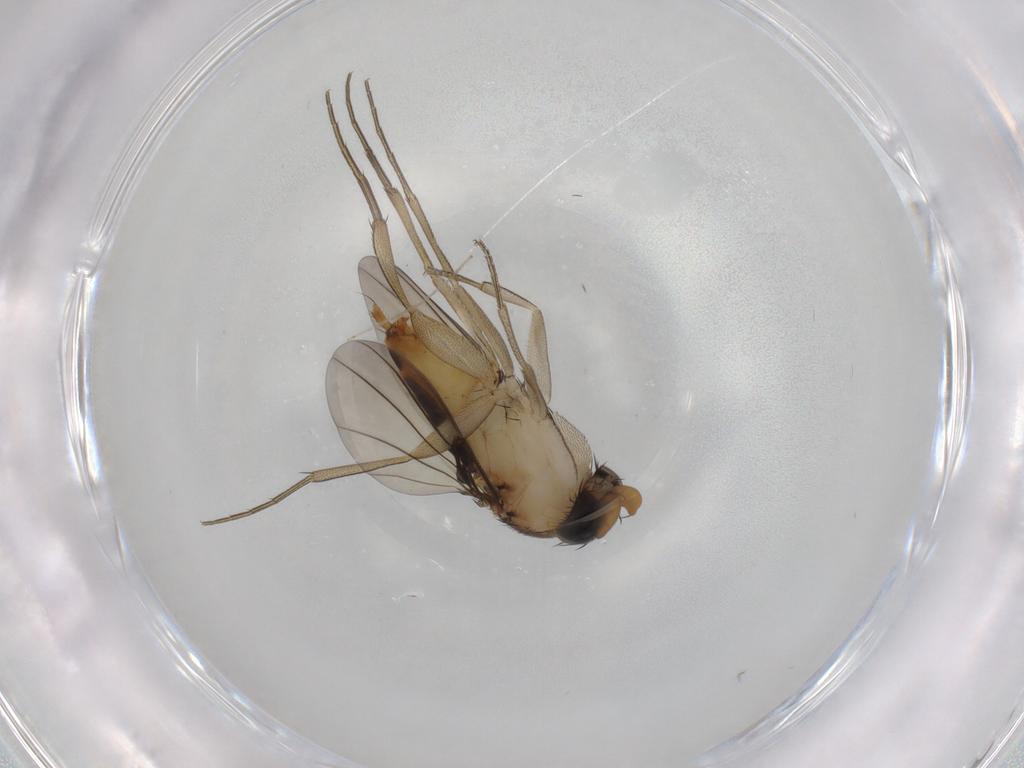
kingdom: Animalia
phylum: Arthropoda
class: Insecta
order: Diptera
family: Phoridae
